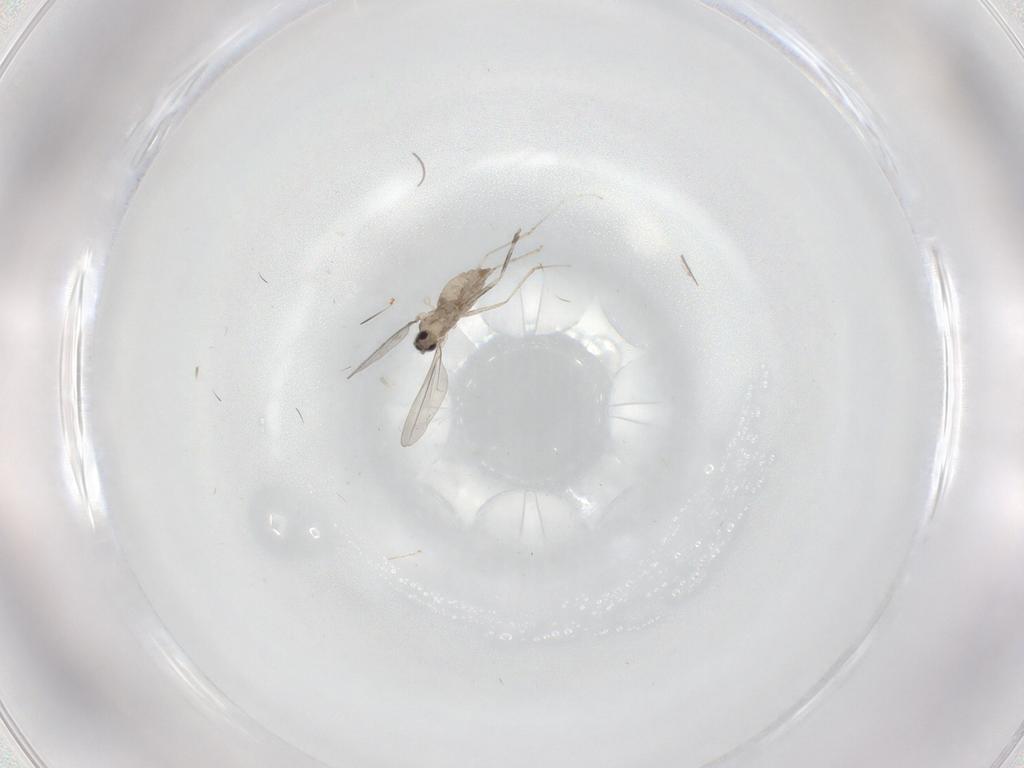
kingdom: Animalia
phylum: Arthropoda
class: Insecta
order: Diptera
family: Cecidomyiidae
